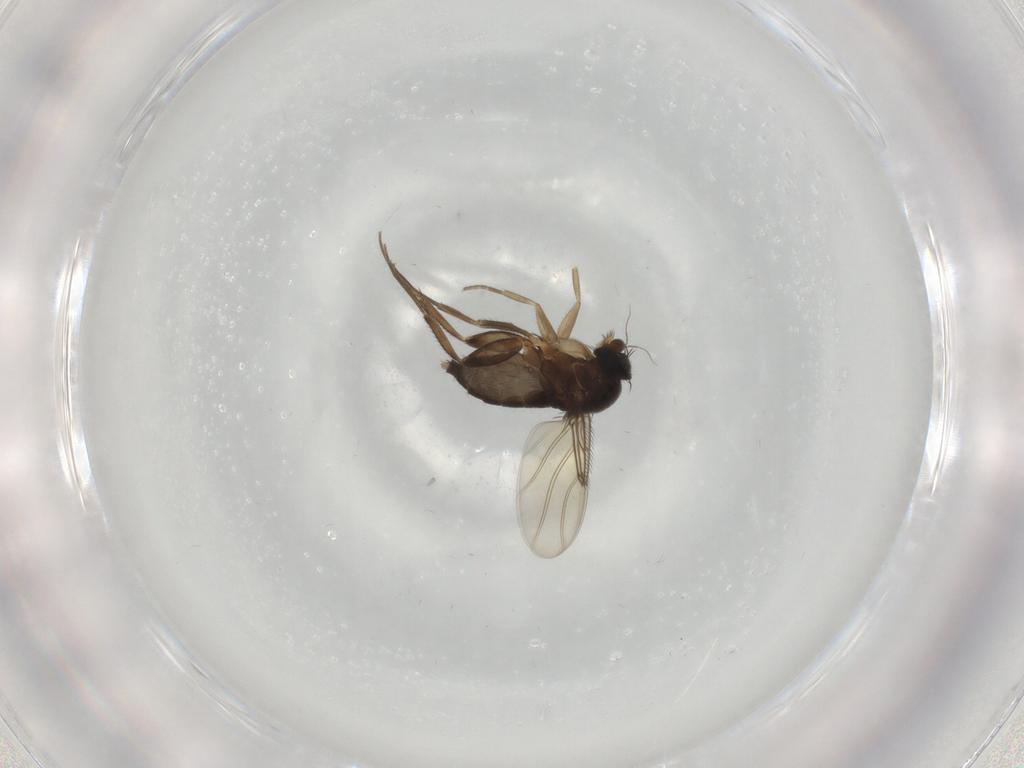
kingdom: Animalia
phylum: Arthropoda
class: Insecta
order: Diptera
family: Phoridae
